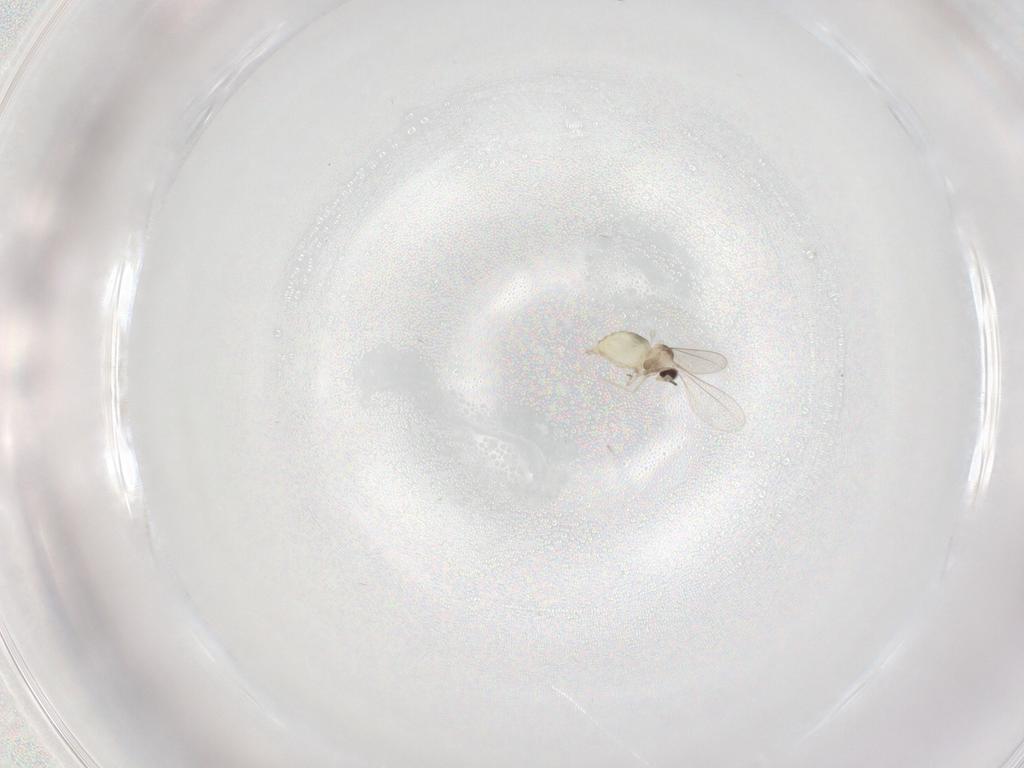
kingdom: Animalia
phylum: Arthropoda
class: Insecta
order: Diptera
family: Cecidomyiidae
